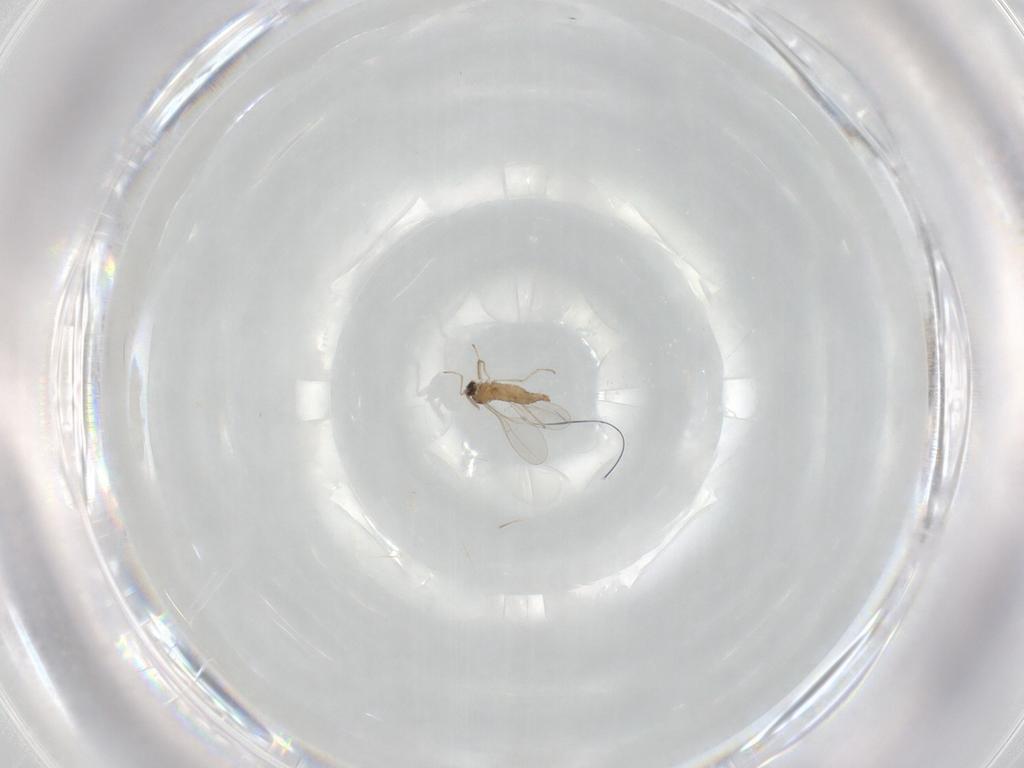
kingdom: Animalia
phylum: Arthropoda
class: Insecta
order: Diptera
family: Cecidomyiidae
